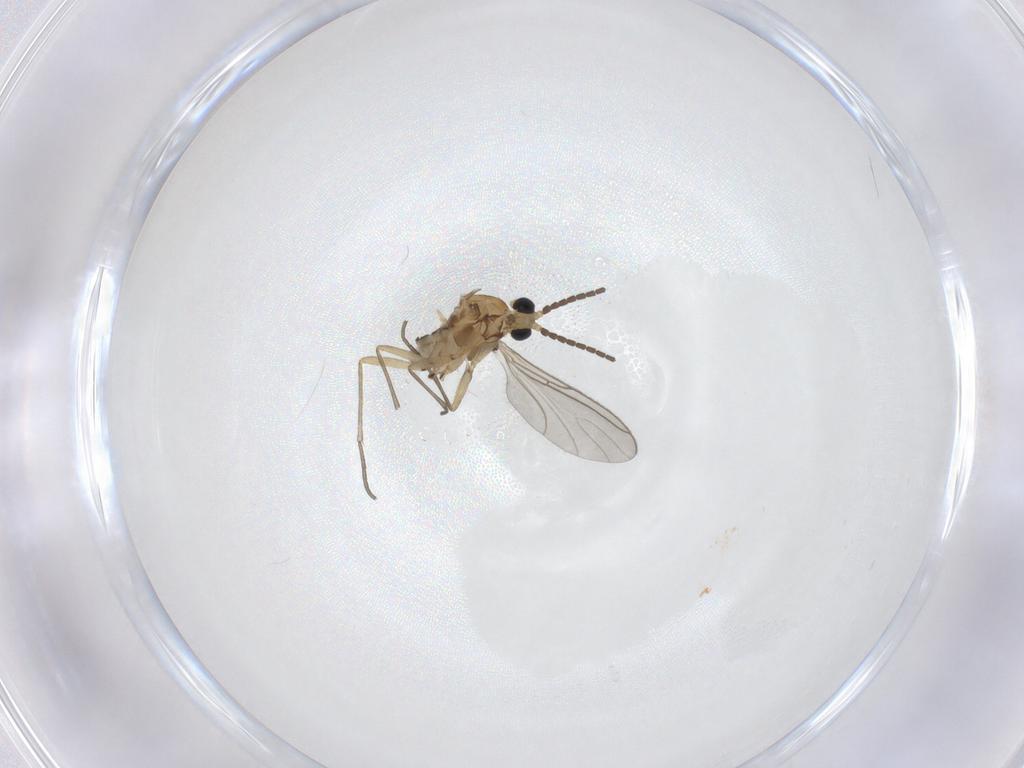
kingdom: Animalia
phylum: Arthropoda
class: Insecta
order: Diptera
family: Sciaridae
